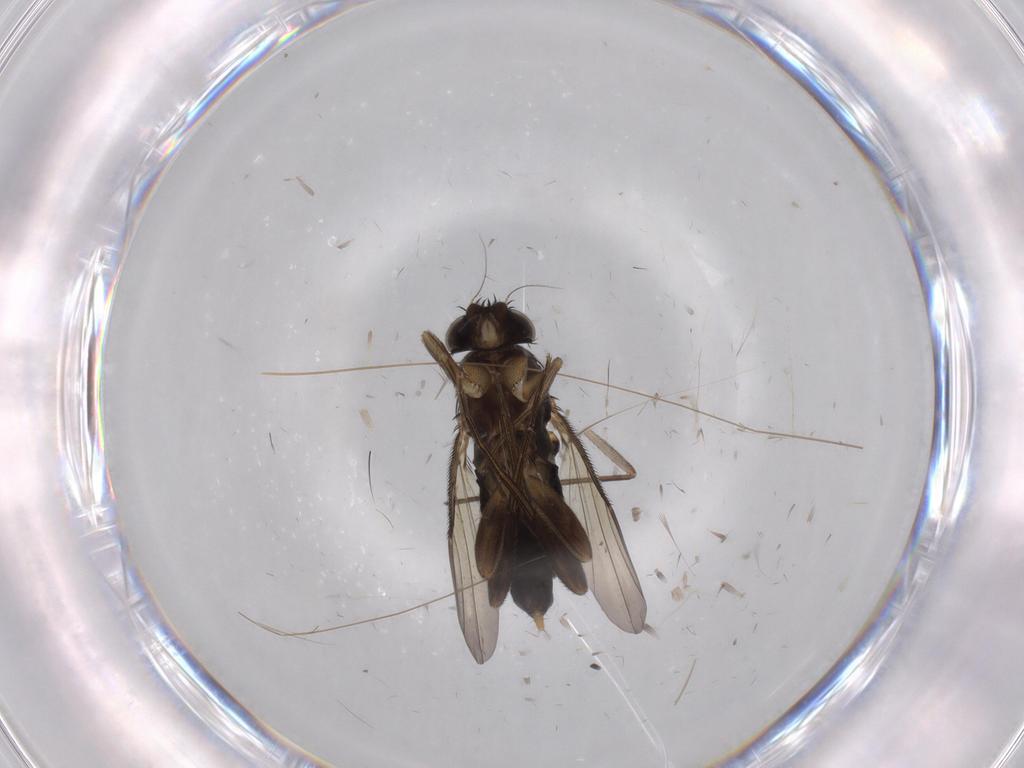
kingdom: Animalia
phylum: Arthropoda
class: Insecta
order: Diptera
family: Phoridae
